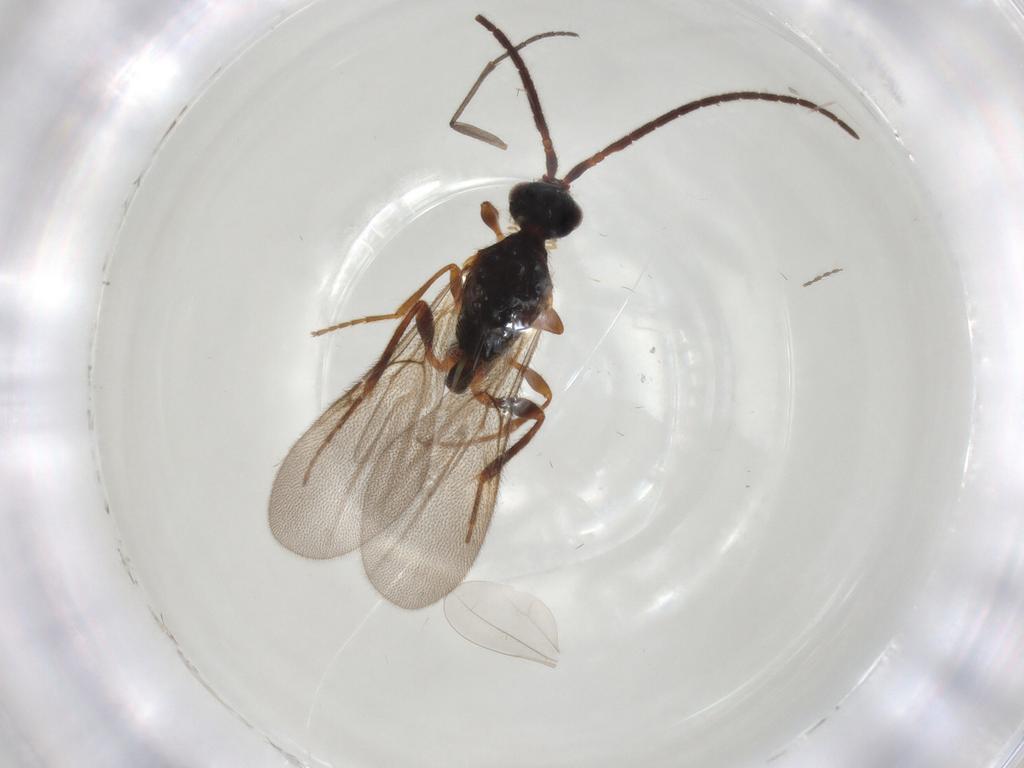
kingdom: Animalia
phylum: Arthropoda
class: Insecta
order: Diptera
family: Sciaridae
